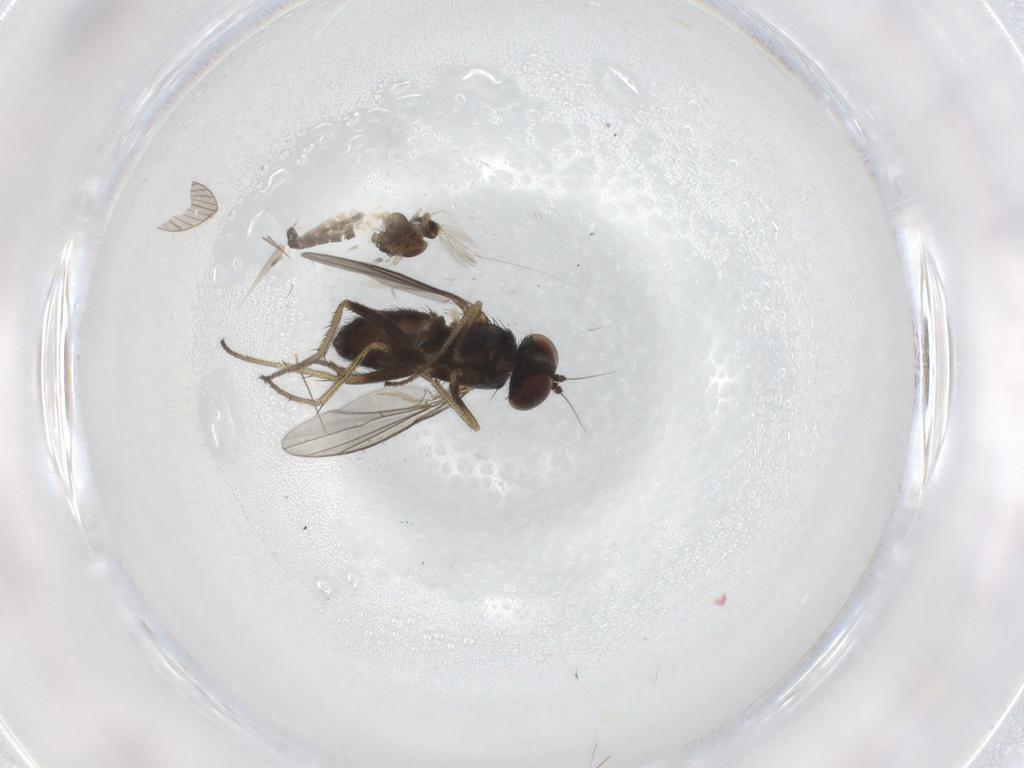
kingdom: Animalia
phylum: Arthropoda
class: Insecta
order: Diptera
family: Dolichopodidae
